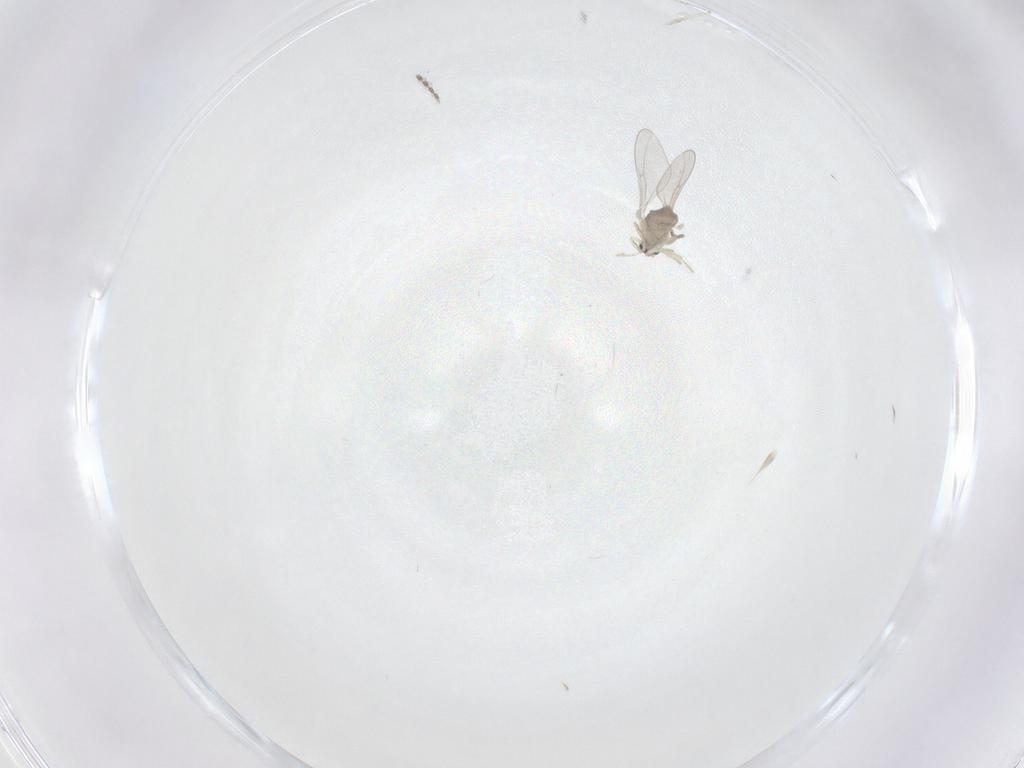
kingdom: Animalia
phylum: Arthropoda
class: Insecta
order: Diptera
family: Cecidomyiidae
